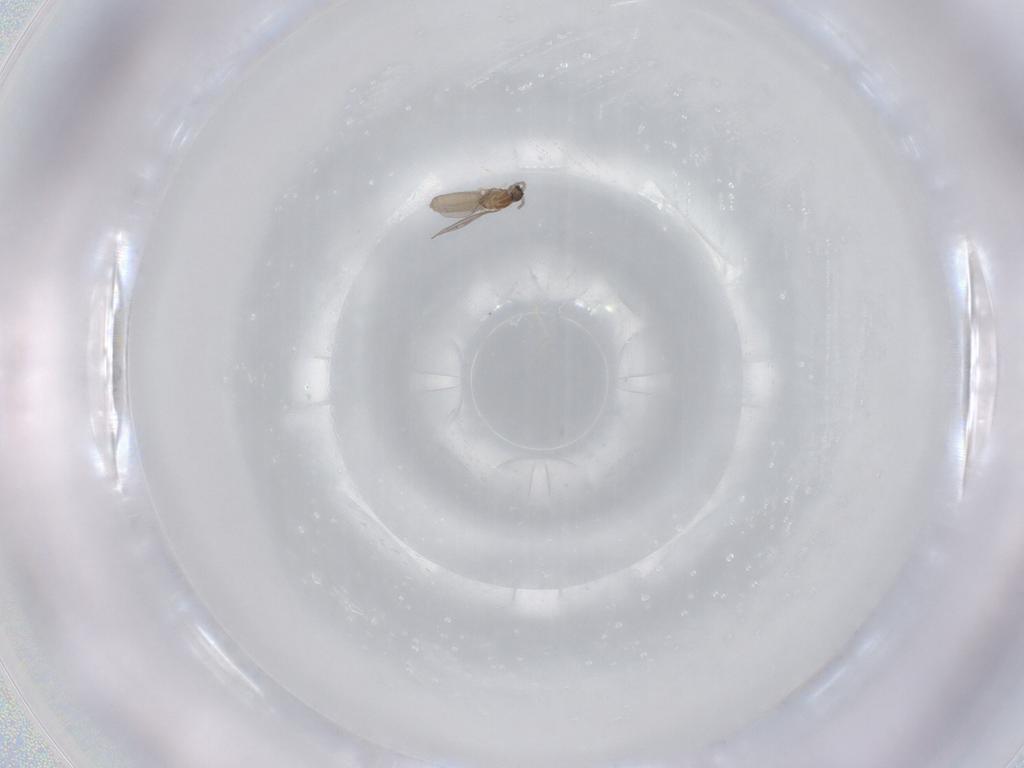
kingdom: Animalia
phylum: Arthropoda
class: Insecta
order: Diptera
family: Cecidomyiidae
